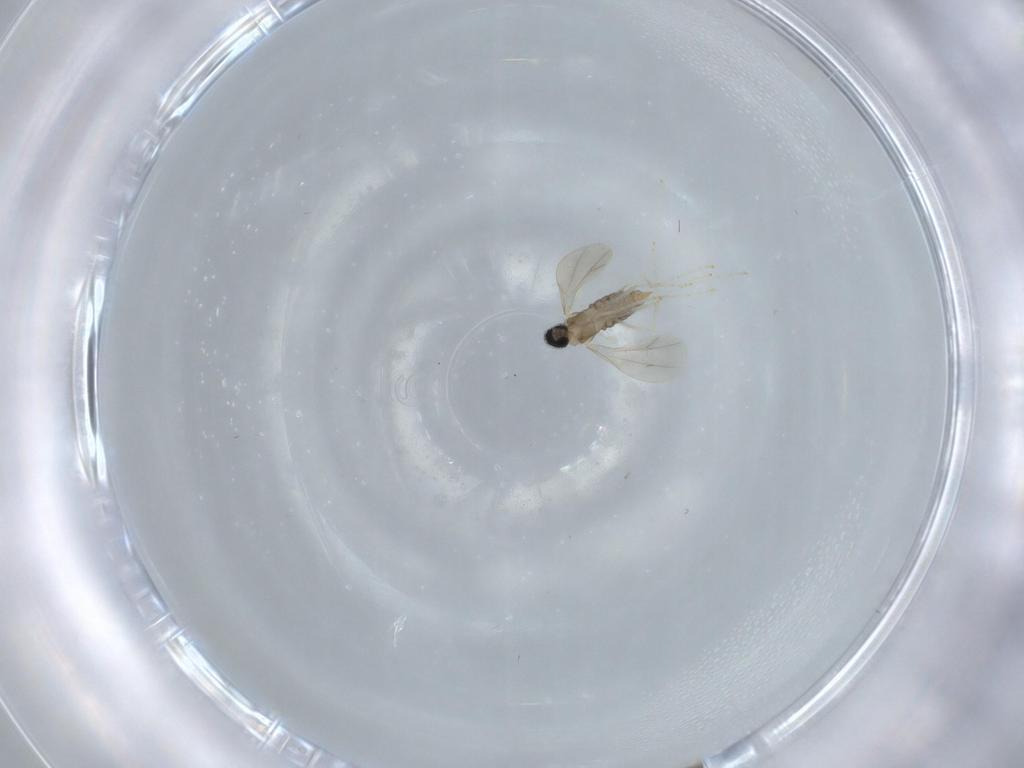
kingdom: Animalia
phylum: Arthropoda
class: Insecta
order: Diptera
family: Cecidomyiidae
